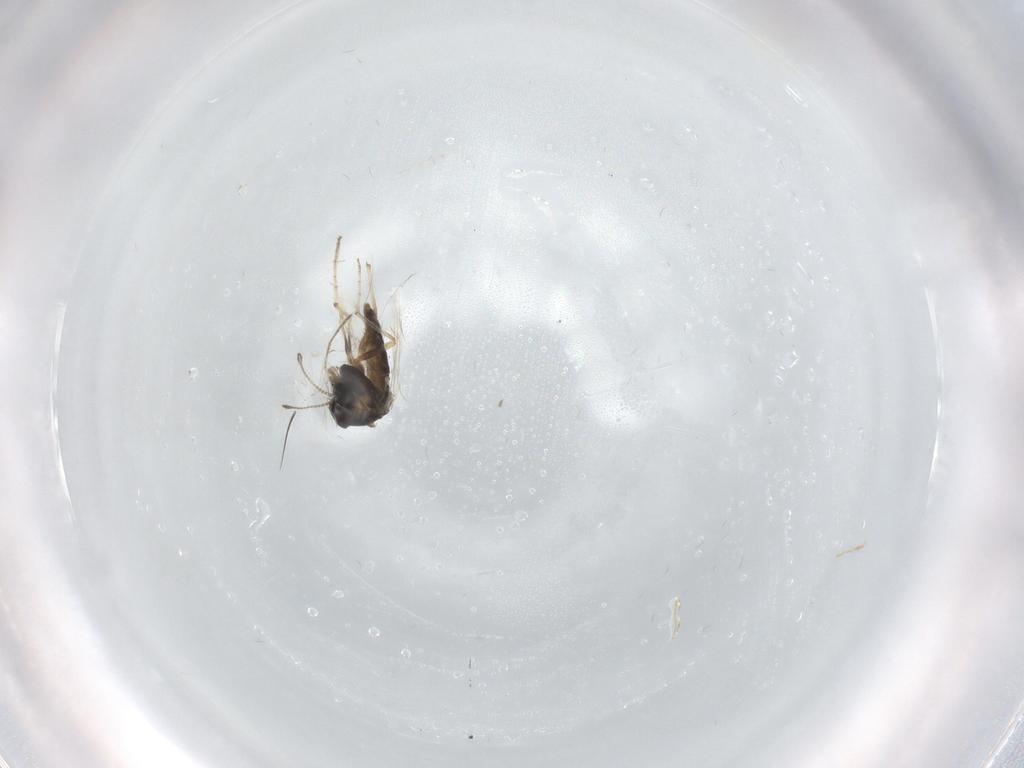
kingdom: Animalia
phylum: Arthropoda
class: Insecta
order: Diptera
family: Chironomidae
